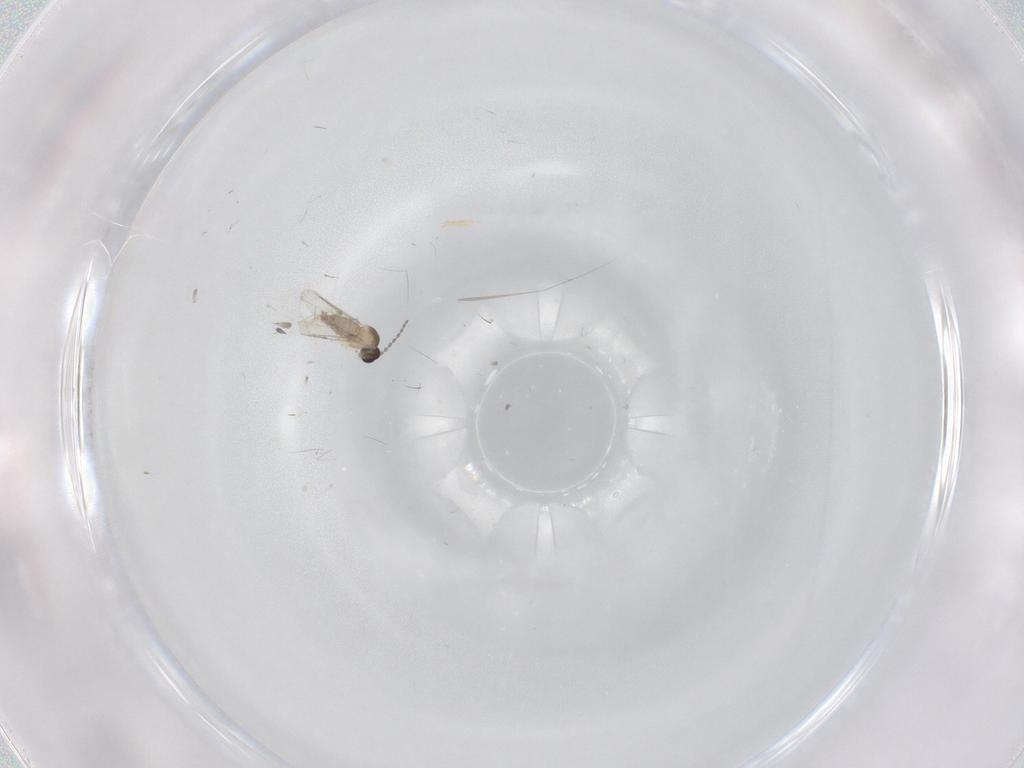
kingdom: Animalia
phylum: Arthropoda
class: Insecta
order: Diptera
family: Cecidomyiidae
